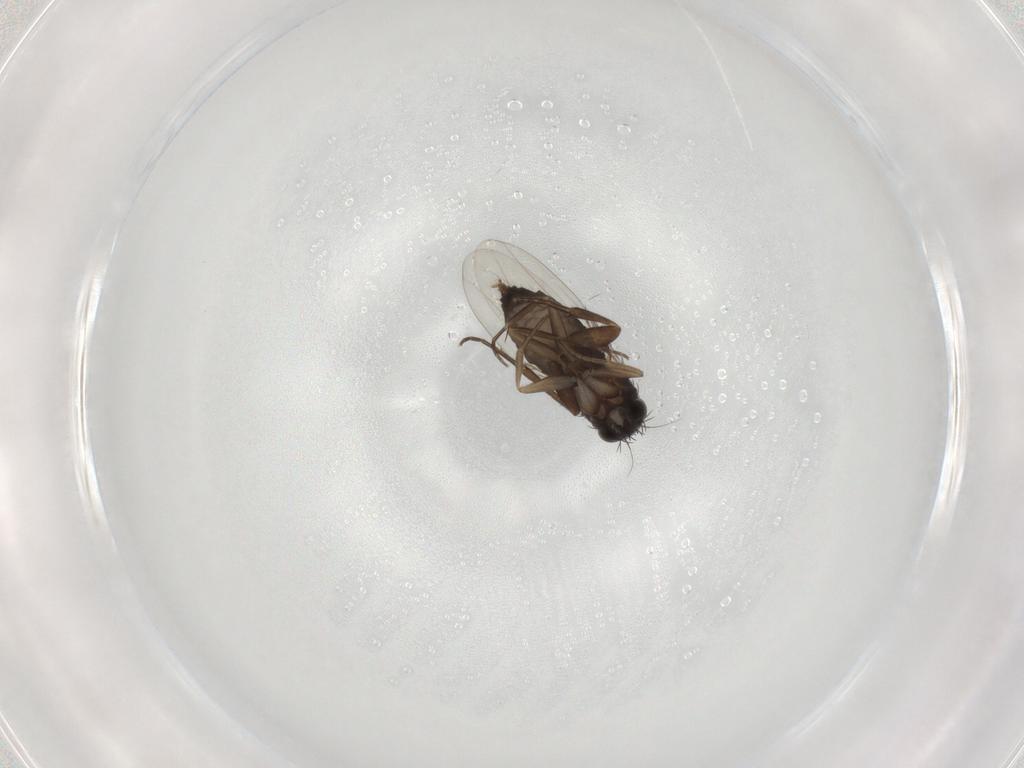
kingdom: Animalia
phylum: Arthropoda
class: Insecta
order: Diptera
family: Phoridae
